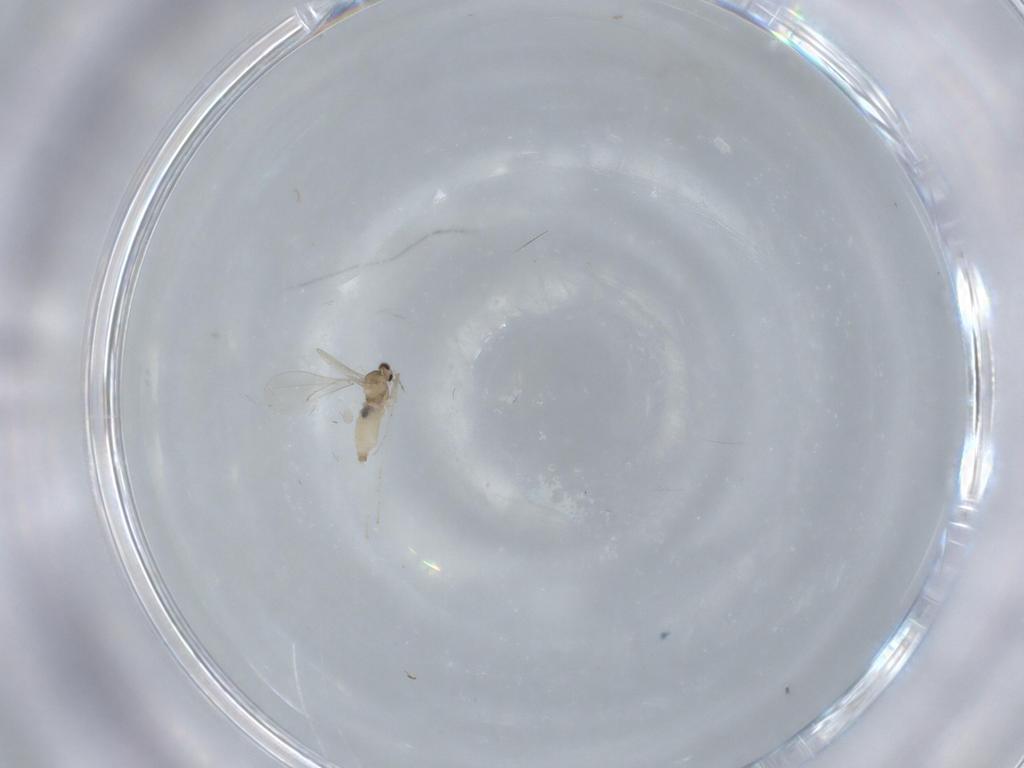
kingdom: Animalia
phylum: Arthropoda
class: Insecta
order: Diptera
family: Cecidomyiidae
